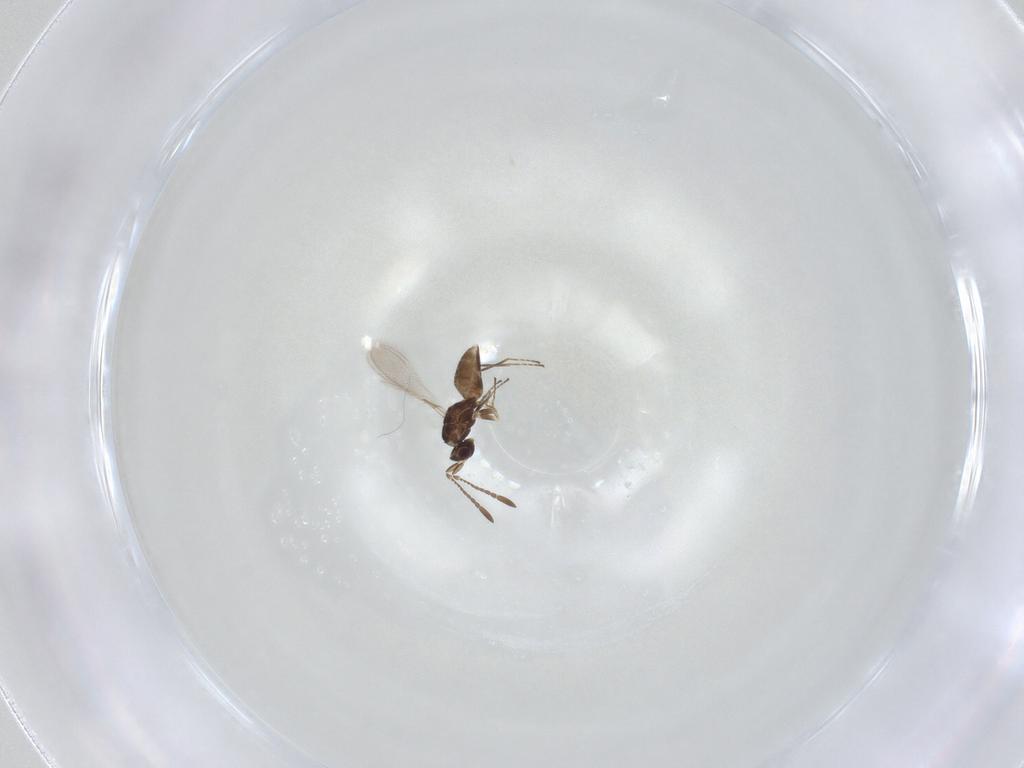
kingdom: Animalia
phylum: Arthropoda
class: Insecta
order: Hymenoptera
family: Mymaridae
